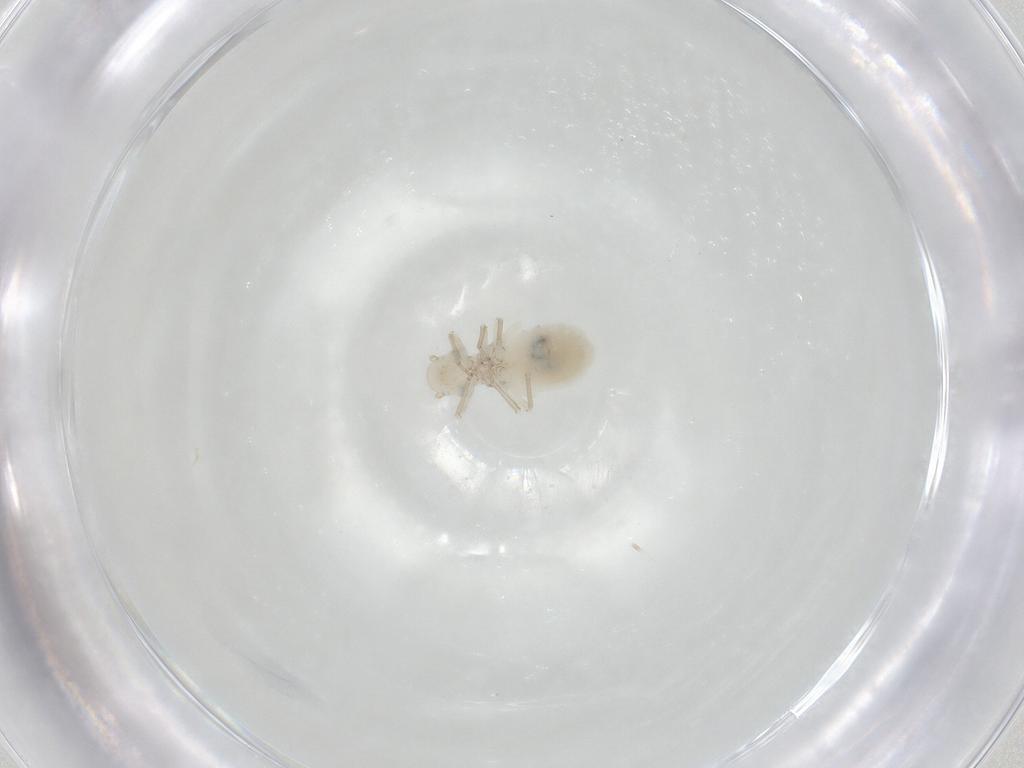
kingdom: Animalia
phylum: Arthropoda
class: Insecta
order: Psocodea
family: Caeciliusidae
